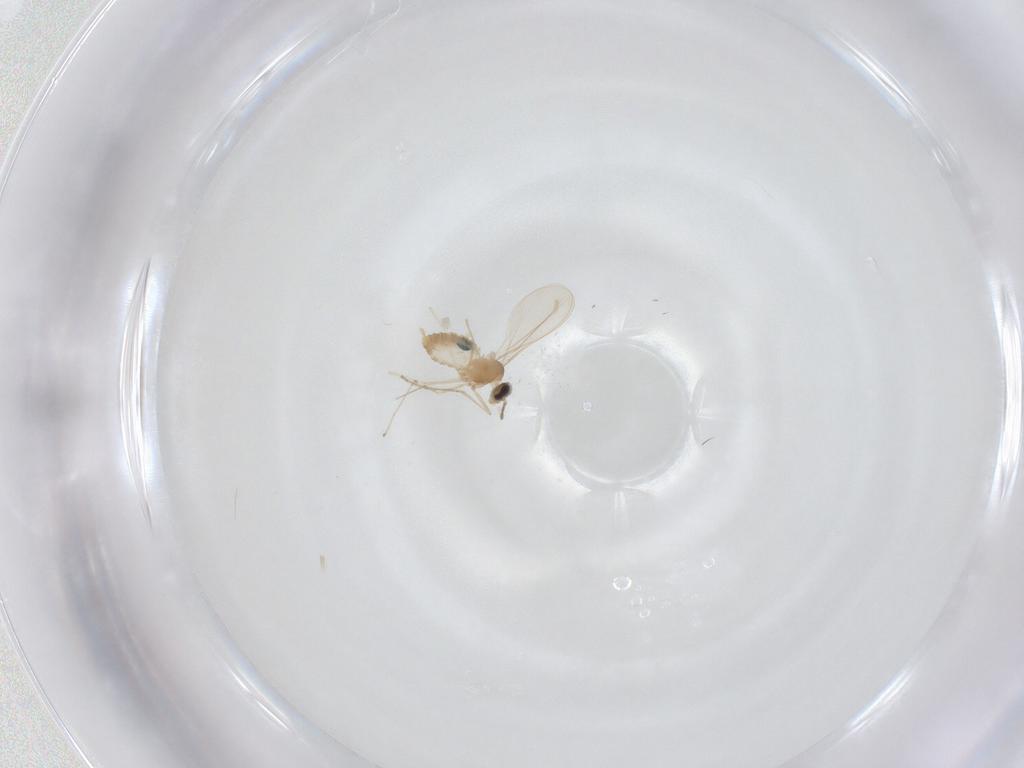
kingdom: Animalia
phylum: Arthropoda
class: Insecta
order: Diptera
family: Cecidomyiidae
